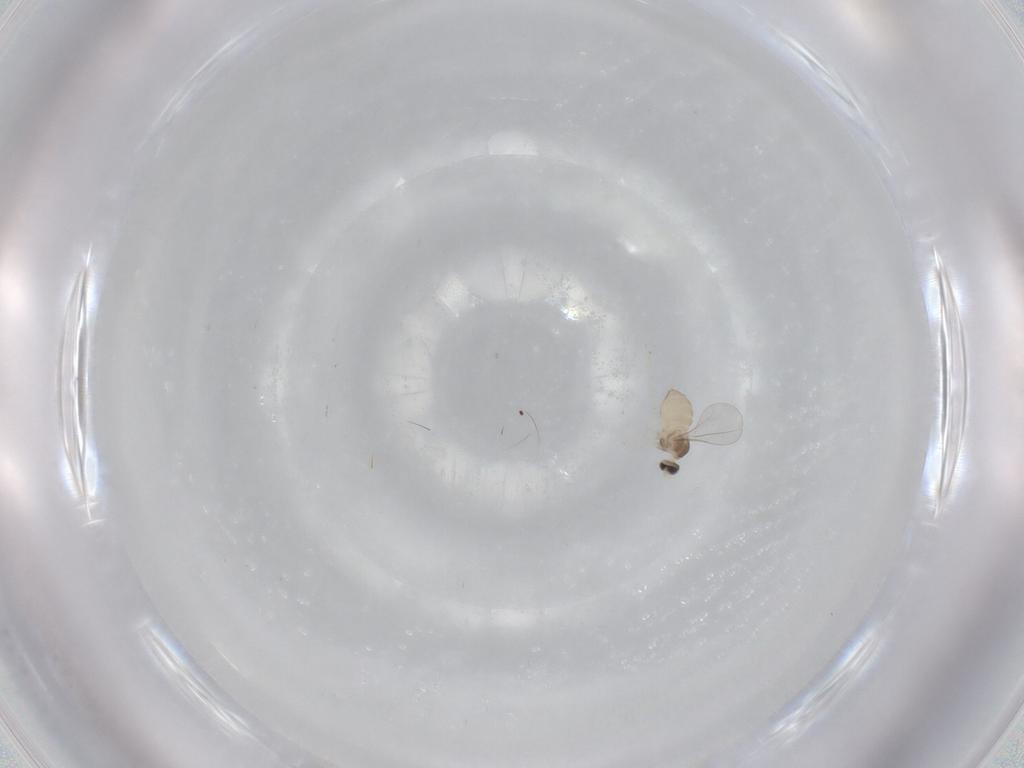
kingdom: Animalia
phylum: Arthropoda
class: Insecta
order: Diptera
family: Cecidomyiidae
